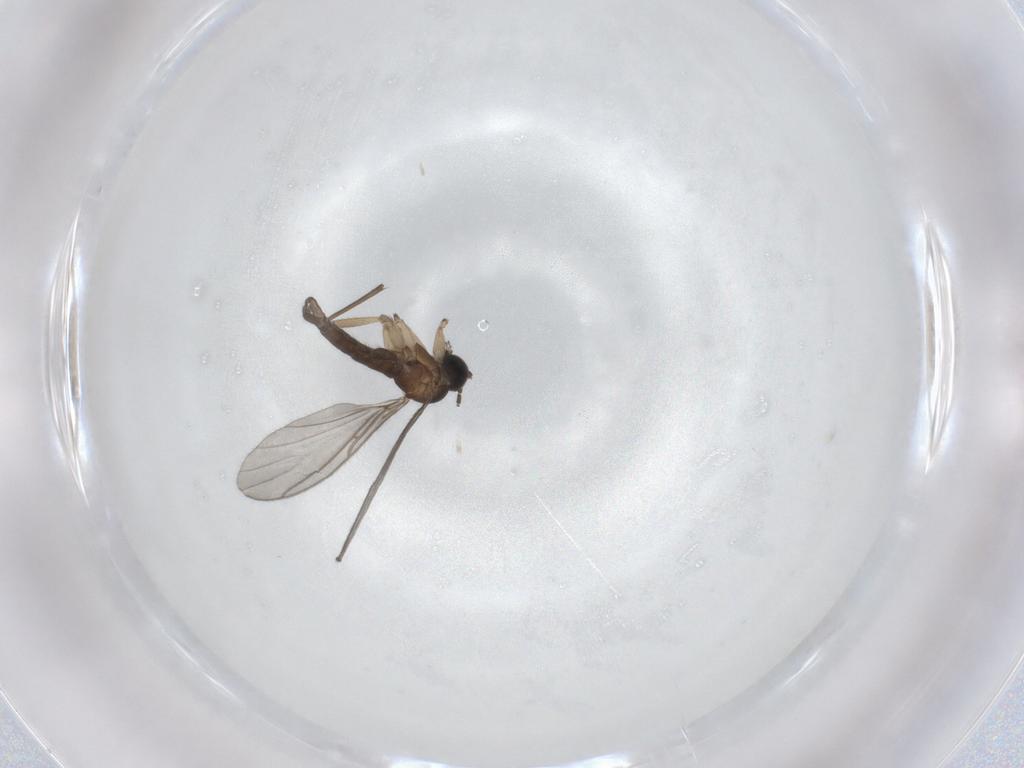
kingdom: Animalia
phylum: Arthropoda
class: Insecta
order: Diptera
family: Sciaridae
